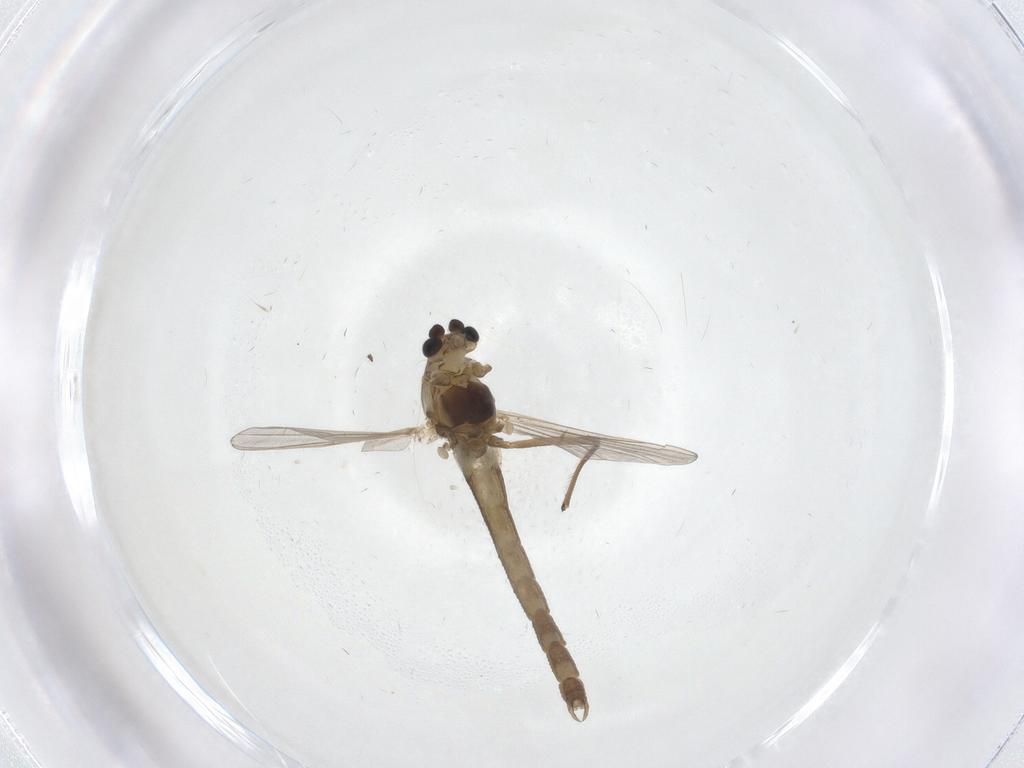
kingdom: Animalia
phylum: Arthropoda
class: Insecta
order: Diptera
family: Chironomidae
